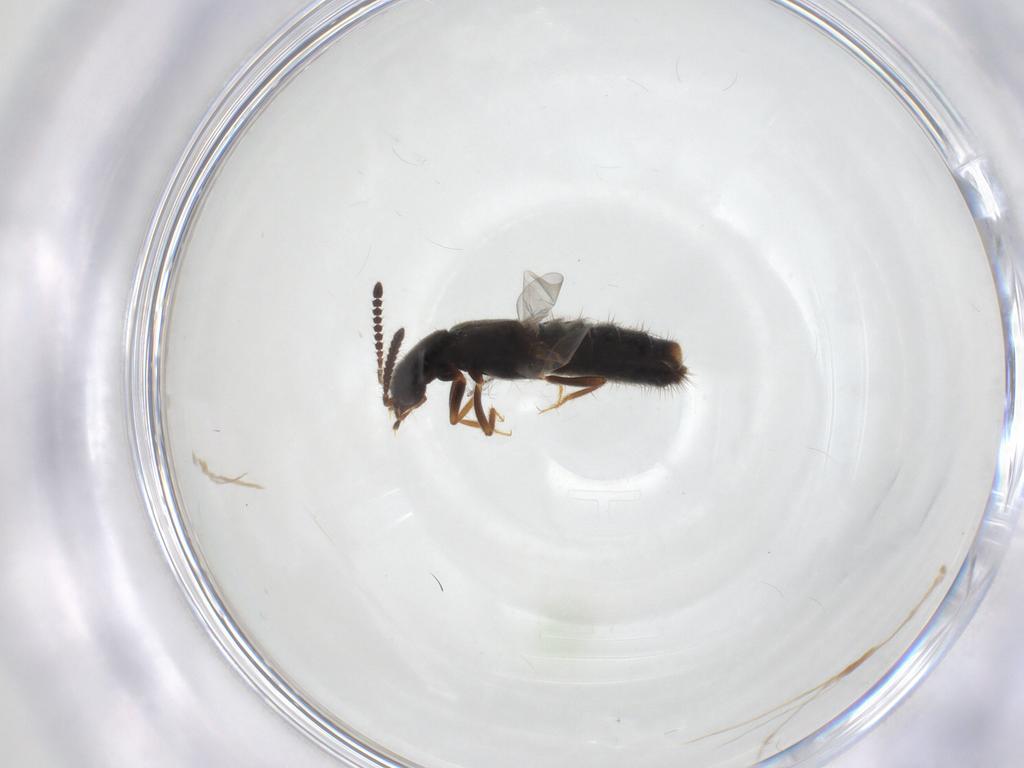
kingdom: Animalia
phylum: Arthropoda
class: Insecta
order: Coleoptera
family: Staphylinidae
